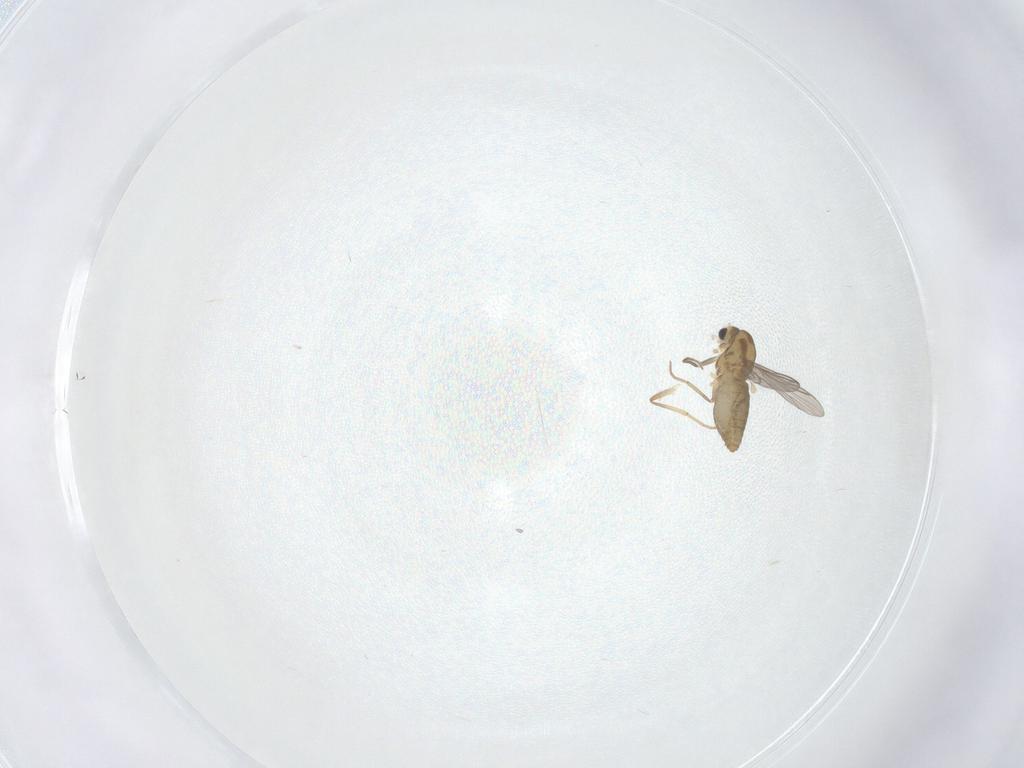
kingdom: Animalia
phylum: Arthropoda
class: Insecta
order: Diptera
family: Chironomidae
